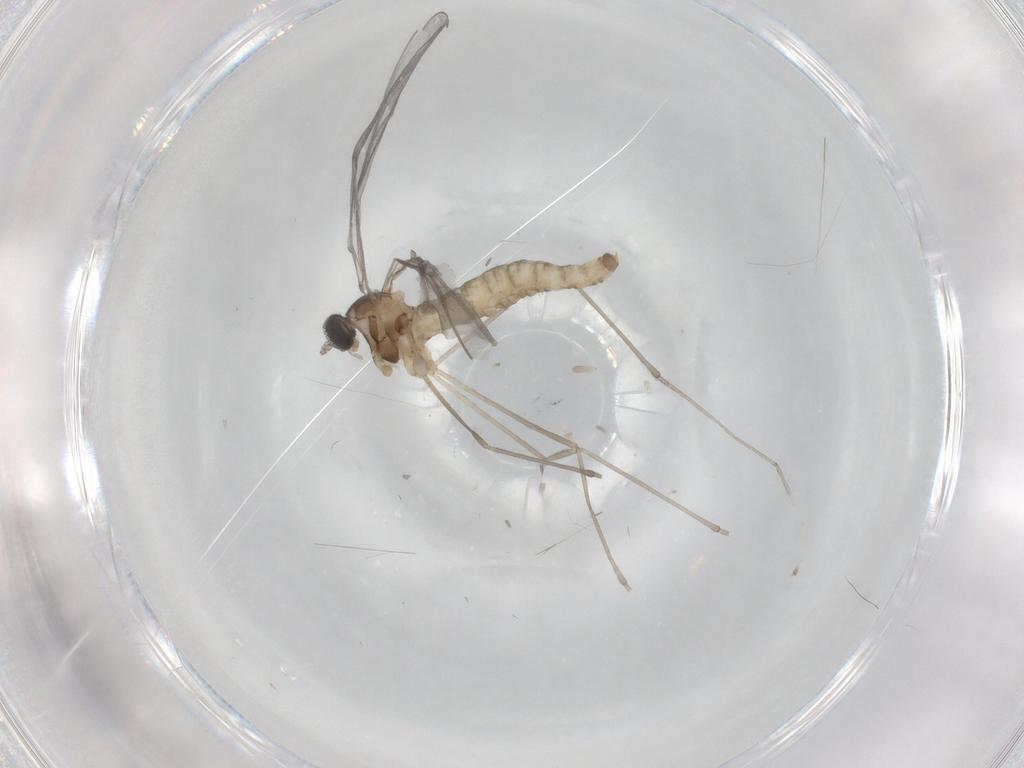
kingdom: Animalia
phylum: Arthropoda
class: Insecta
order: Diptera
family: Cecidomyiidae
